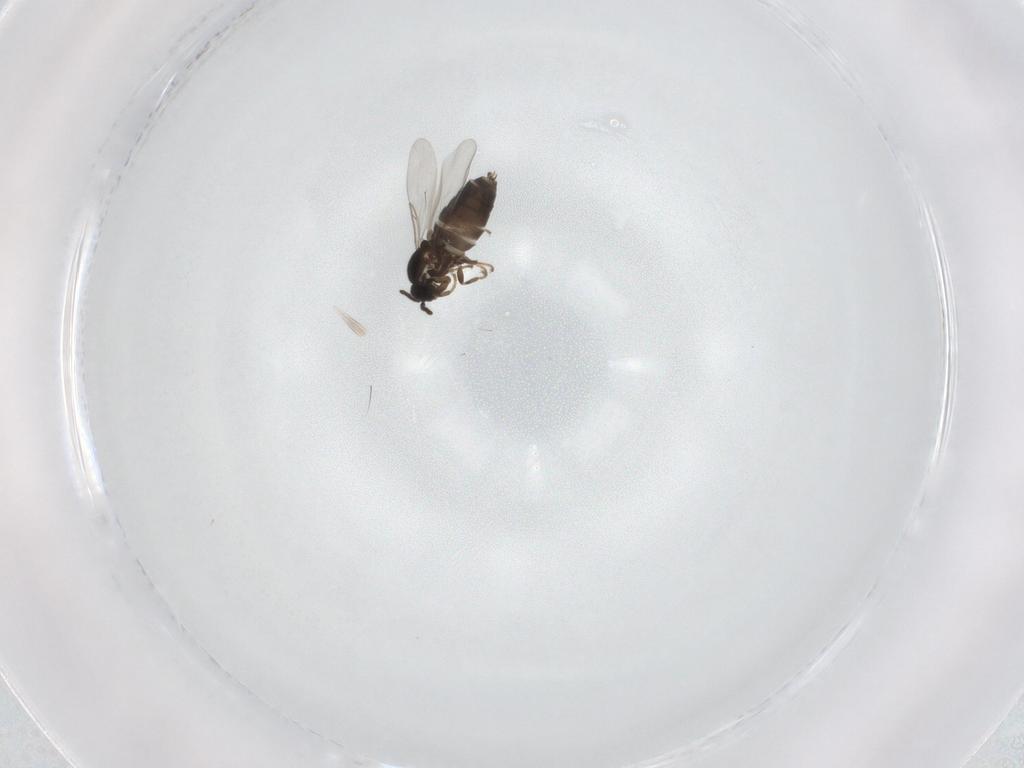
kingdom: Animalia
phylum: Arthropoda
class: Insecta
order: Diptera
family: Scatopsidae
